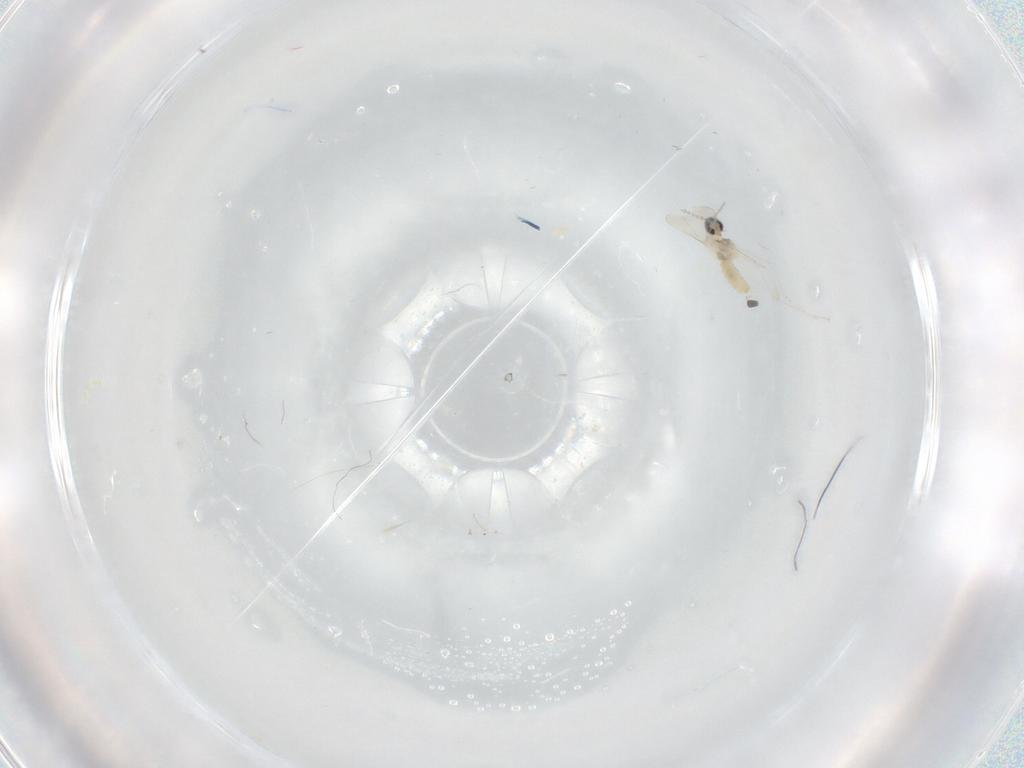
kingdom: Animalia
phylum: Arthropoda
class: Insecta
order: Diptera
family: Cecidomyiidae
